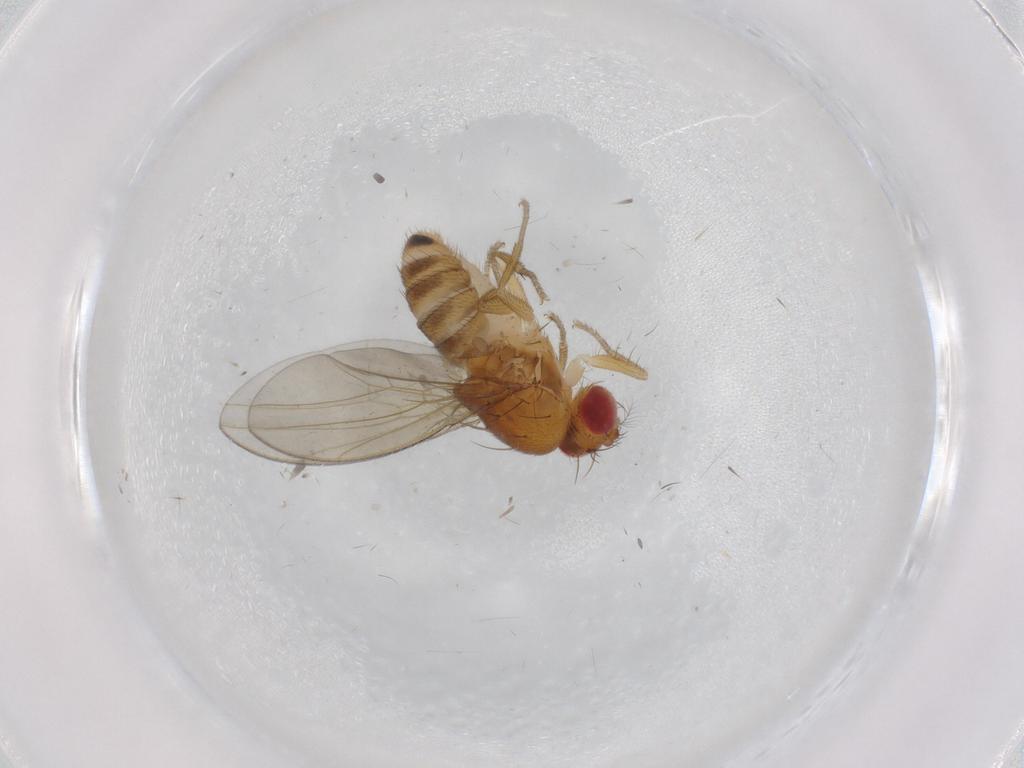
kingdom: Animalia
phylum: Arthropoda
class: Insecta
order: Diptera
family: Drosophilidae
